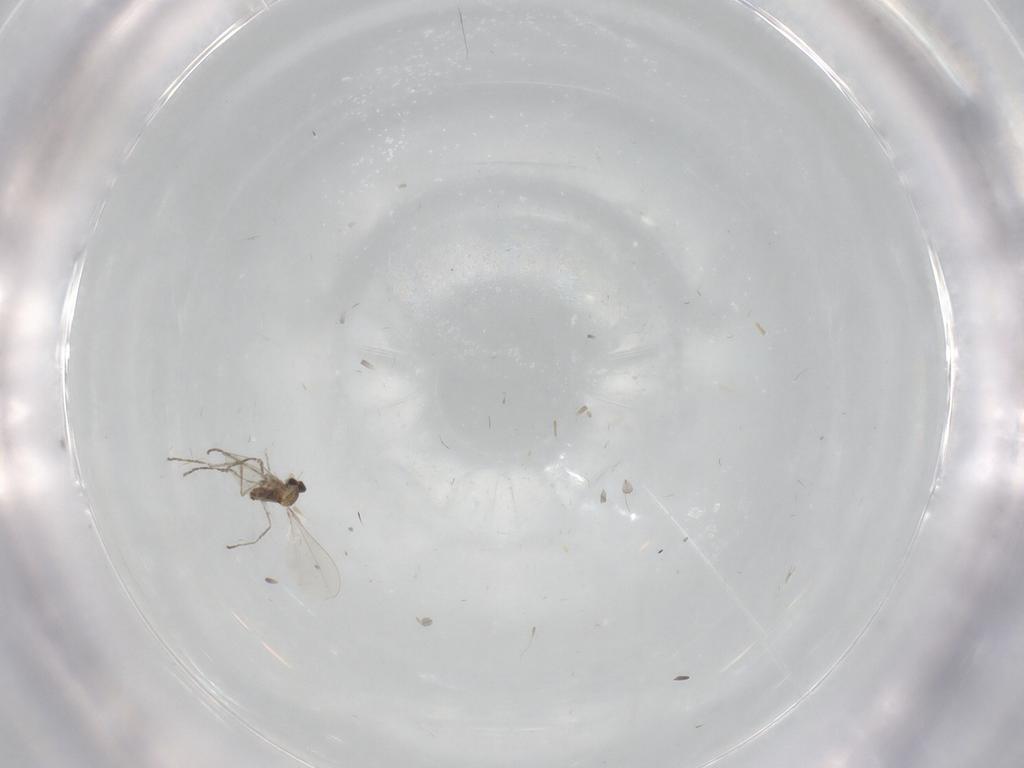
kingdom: Animalia
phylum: Arthropoda
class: Insecta
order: Diptera
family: Cecidomyiidae
